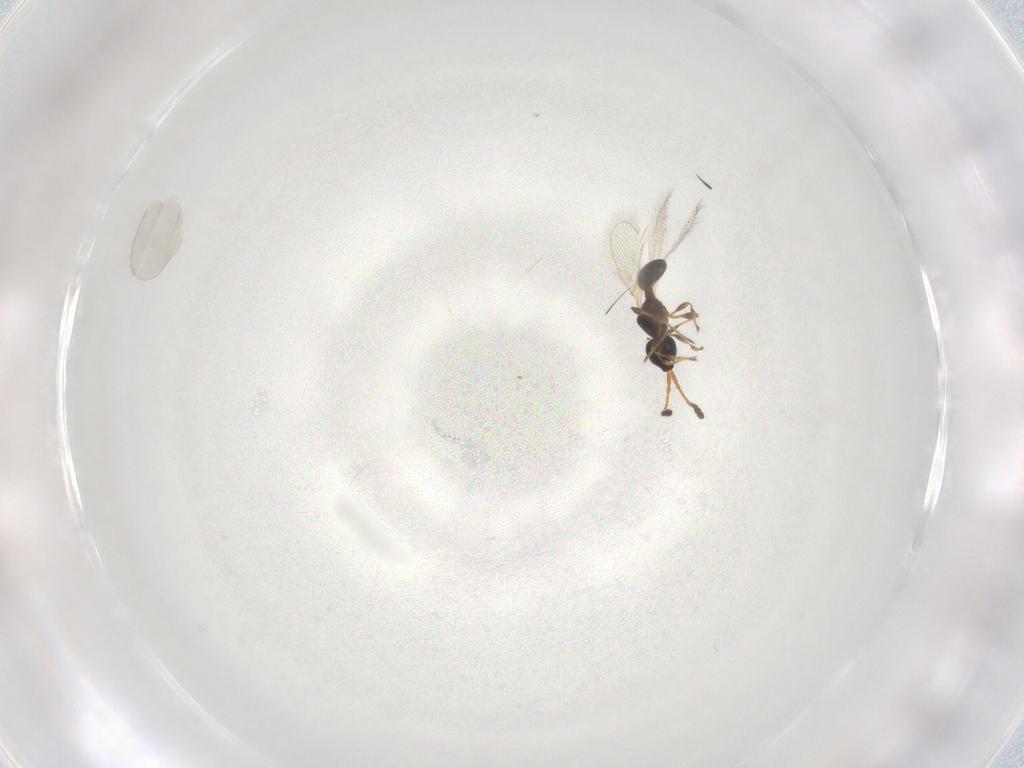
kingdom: Animalia
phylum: Arthropoda
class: Insecta
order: Hymenoptera
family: Diapriidae
